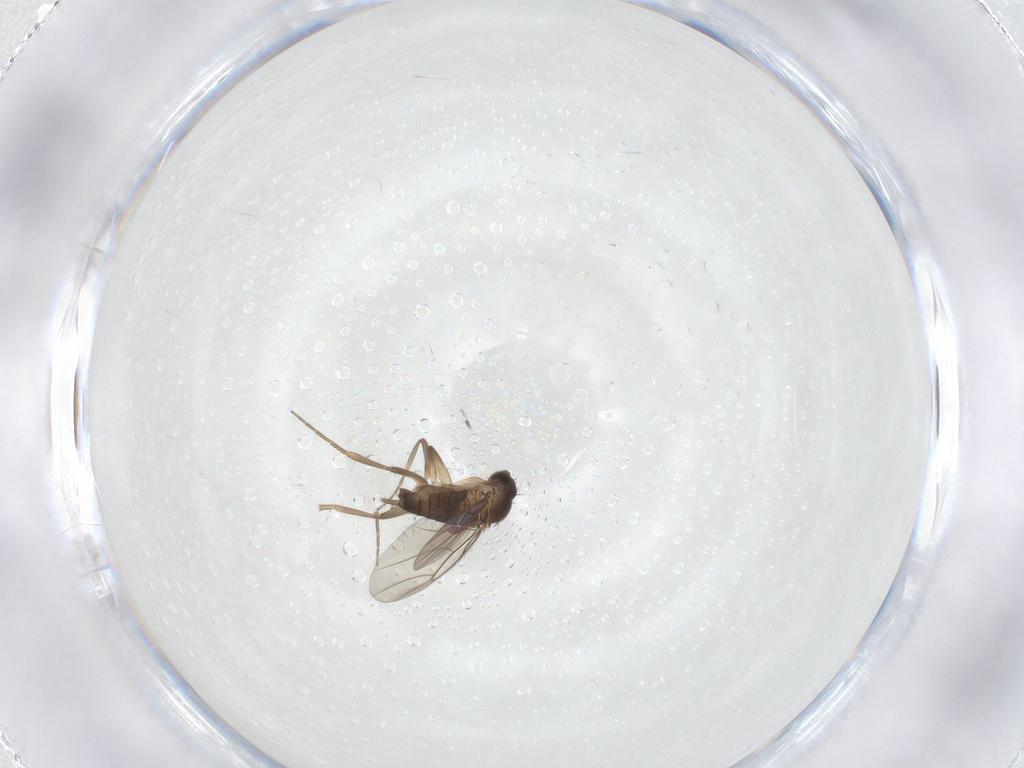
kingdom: Animalia
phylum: Arthropoda
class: Insecta
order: Diptera
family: Phoridae
